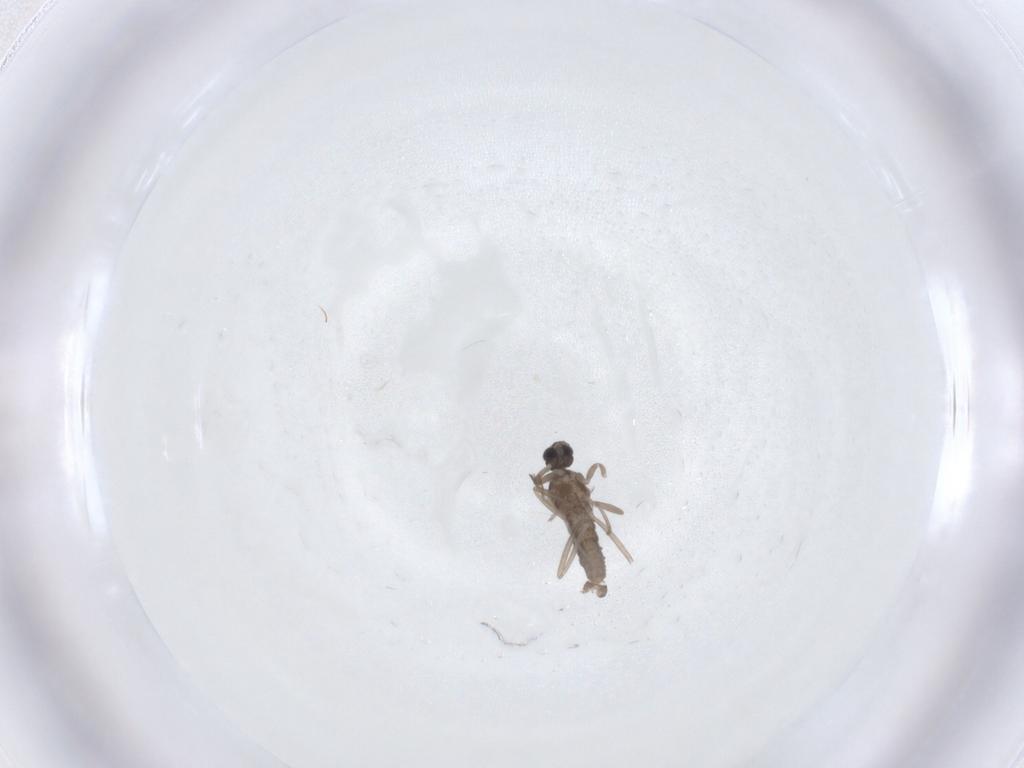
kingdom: Animalia
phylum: Arthropoda
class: Insecta
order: Diptera
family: Cecidomyiidae
